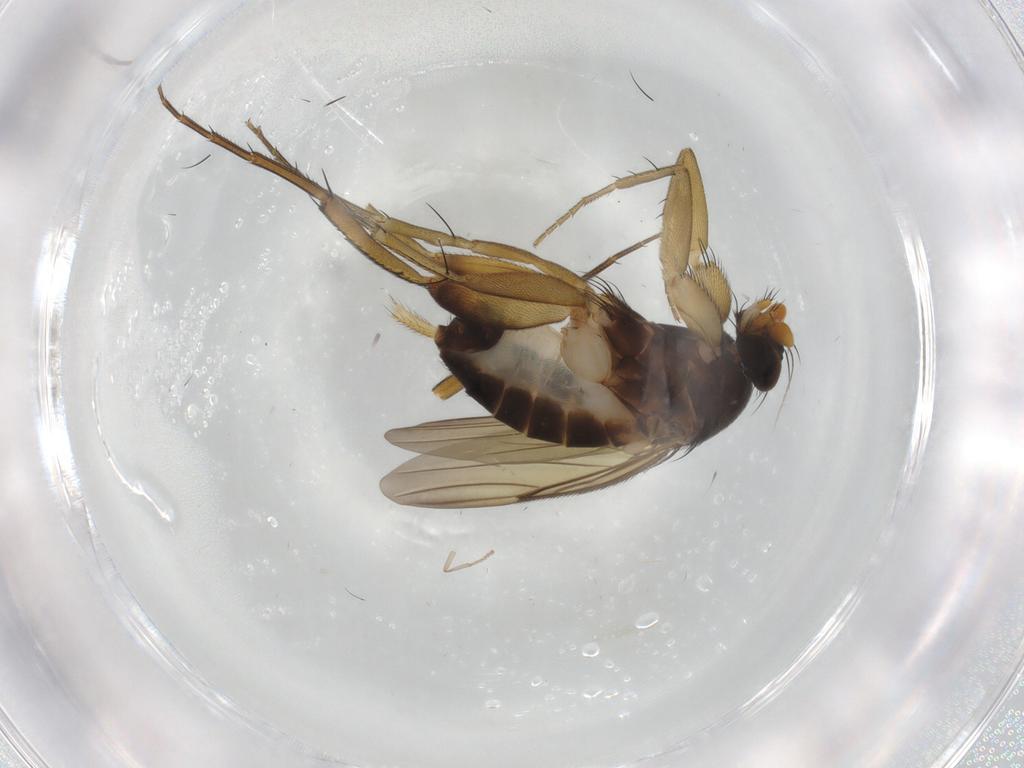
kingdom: Animalia
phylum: Arthropoda
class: Insecta
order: Diptera
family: Phoridae
